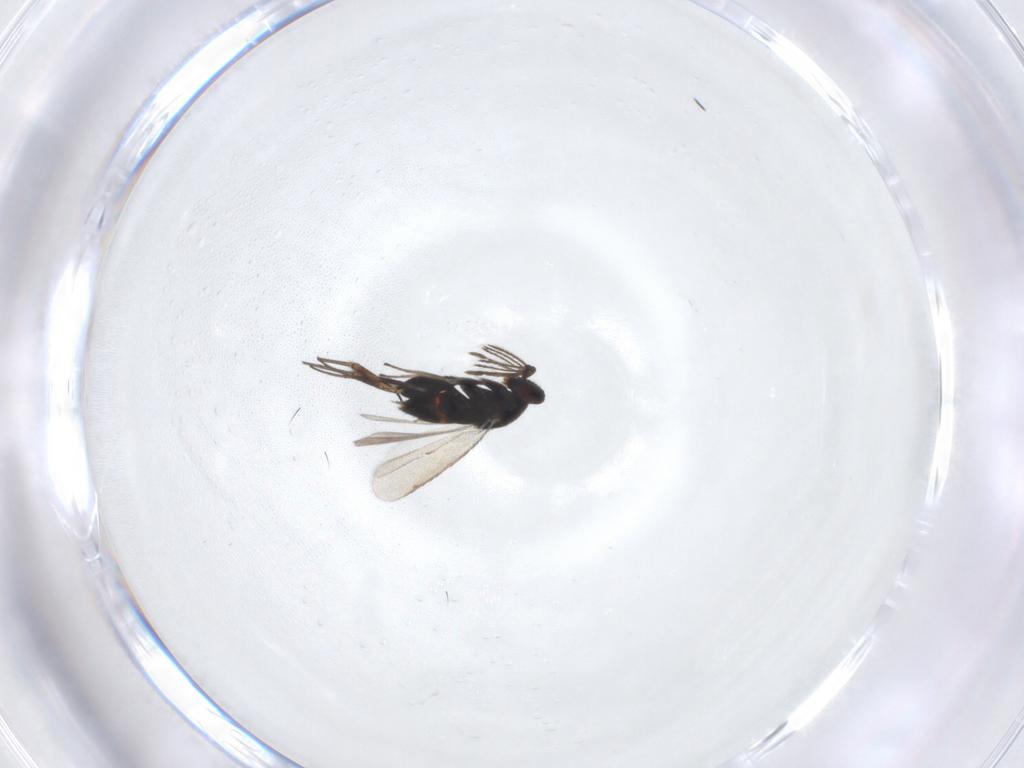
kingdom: Animalia
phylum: Arthropoda
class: Insecta
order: Hymenoptera
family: Eulophidae
